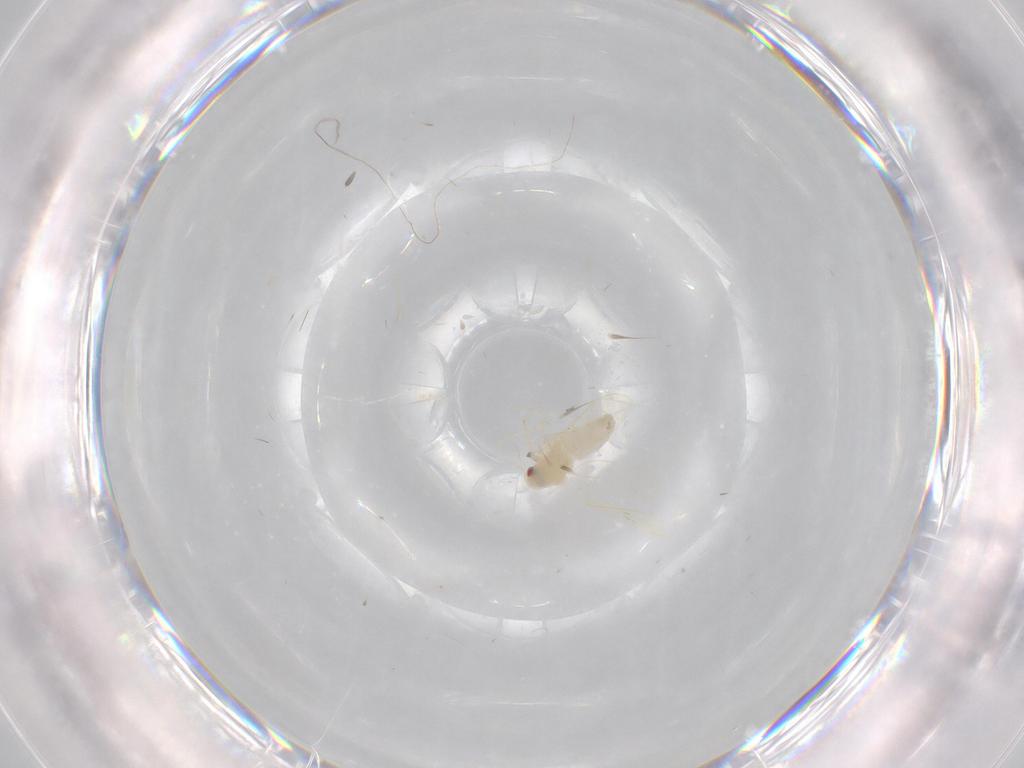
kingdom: Animalia
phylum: Arthropoda
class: Insecta
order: Hemiptera
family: Aleyrodidae
